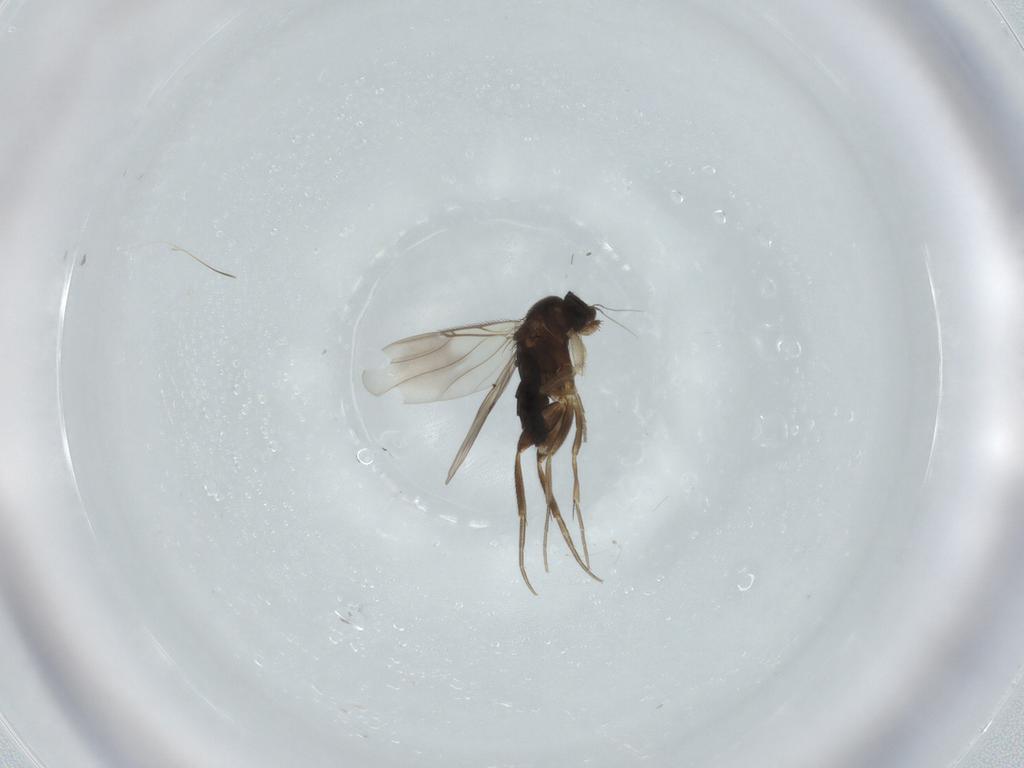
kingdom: Animalia
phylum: Arthropoda
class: Insecta
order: Diptera
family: Phoridae
